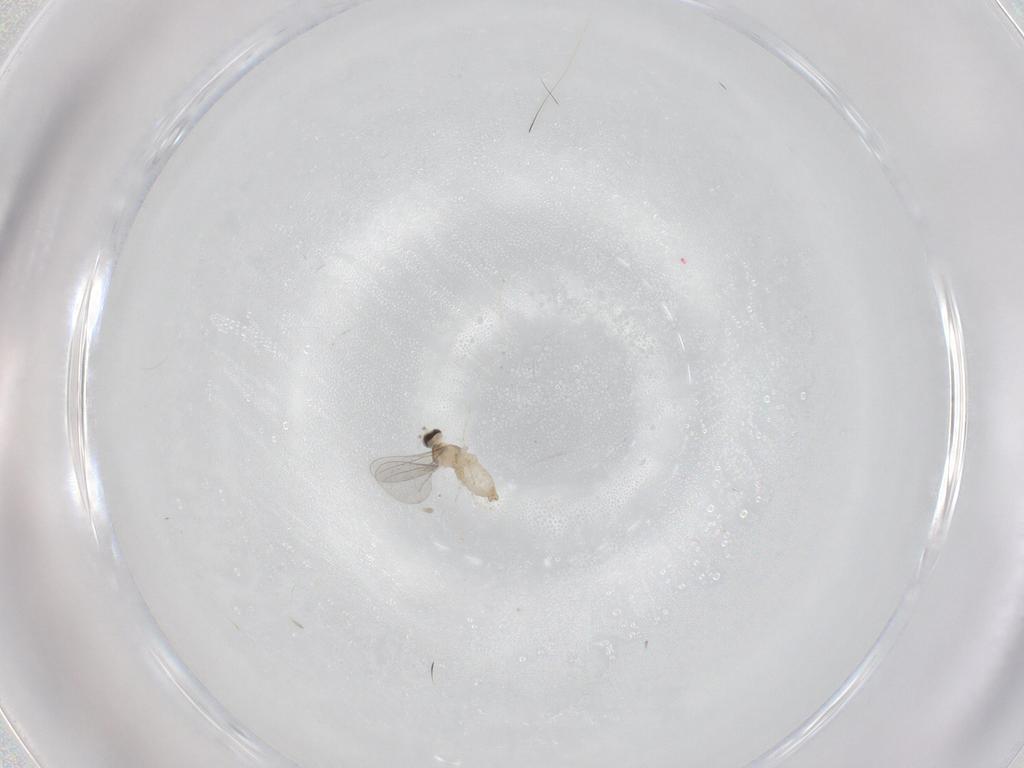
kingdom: Animalia
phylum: Arthropoda
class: Insecta
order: Diptera
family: Cecidomyiidae
